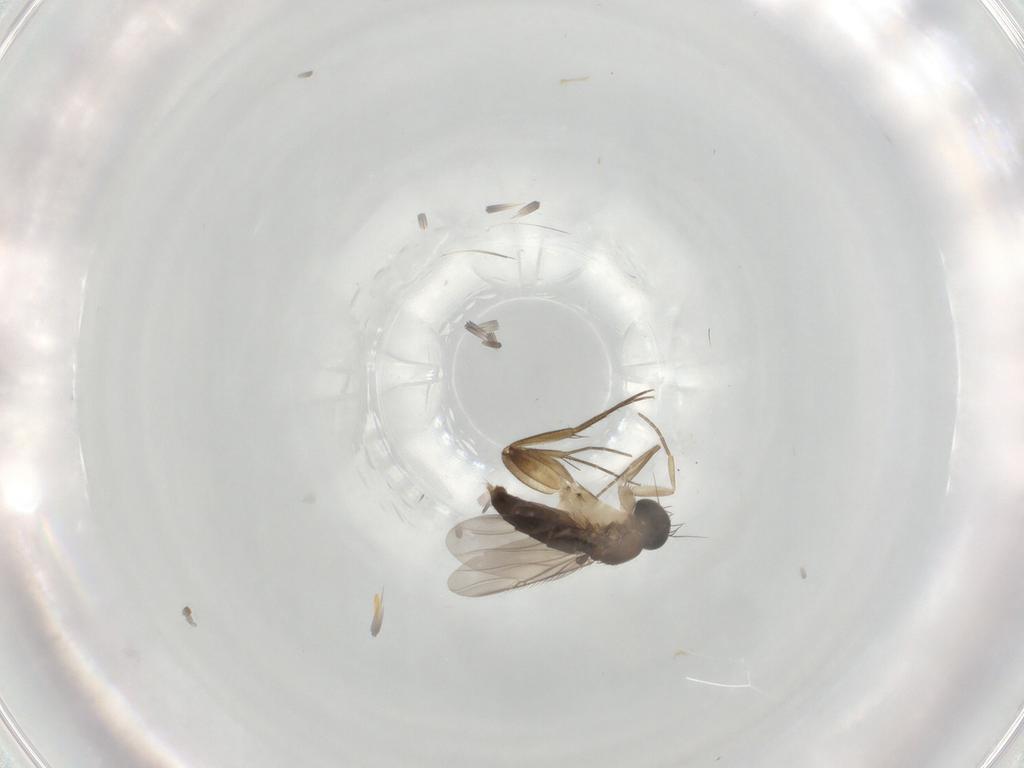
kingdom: Animalia
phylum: Arthropoda
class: Insecta
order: Diptera
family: Phoridae
